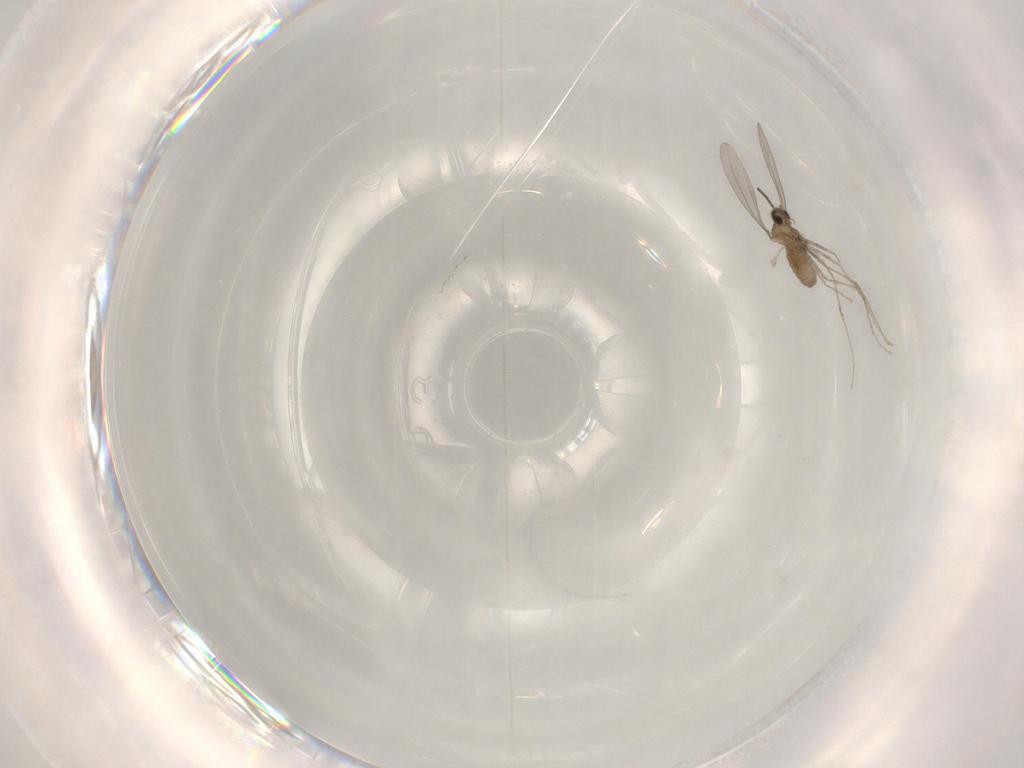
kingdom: Animalia
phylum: Arthropoda
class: Insecta
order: Diptera
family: Cecidomyiidae
